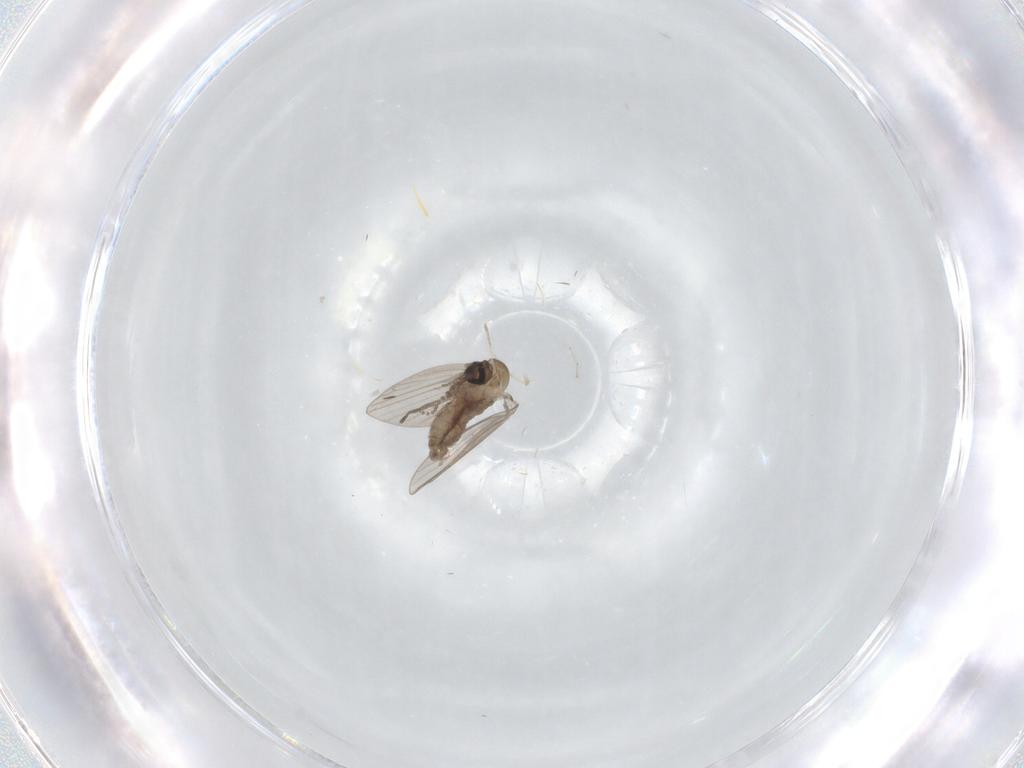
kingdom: Animalia
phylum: Arthropoda
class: Insecta
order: Diptera
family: Psychodidae
